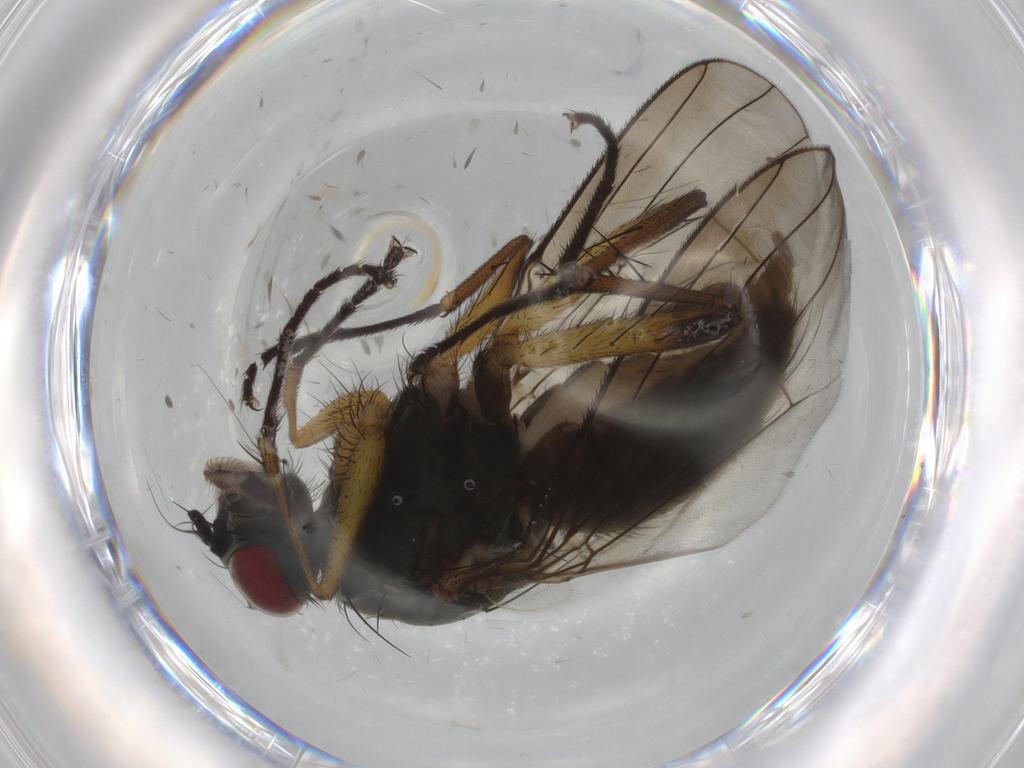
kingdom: Animalia
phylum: Arthropoda
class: Insecta
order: Diptera
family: Muscidae
